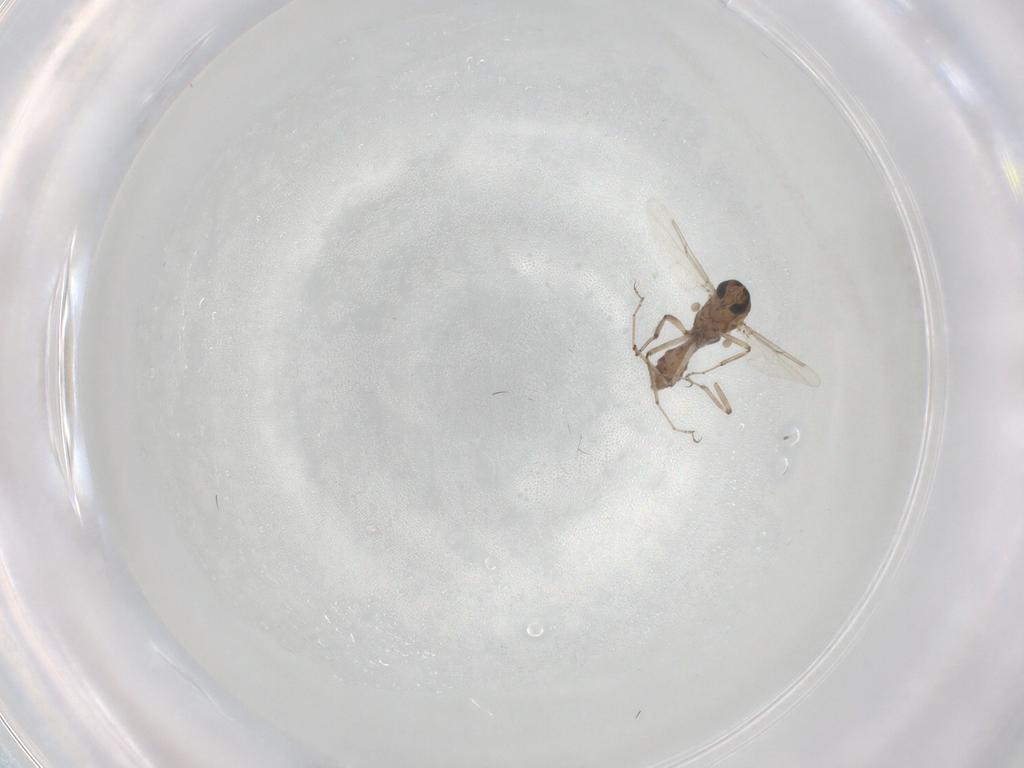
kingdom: Animalia
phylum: Arthropoda
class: Insecta
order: Diptera
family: Ceratopogonidae
